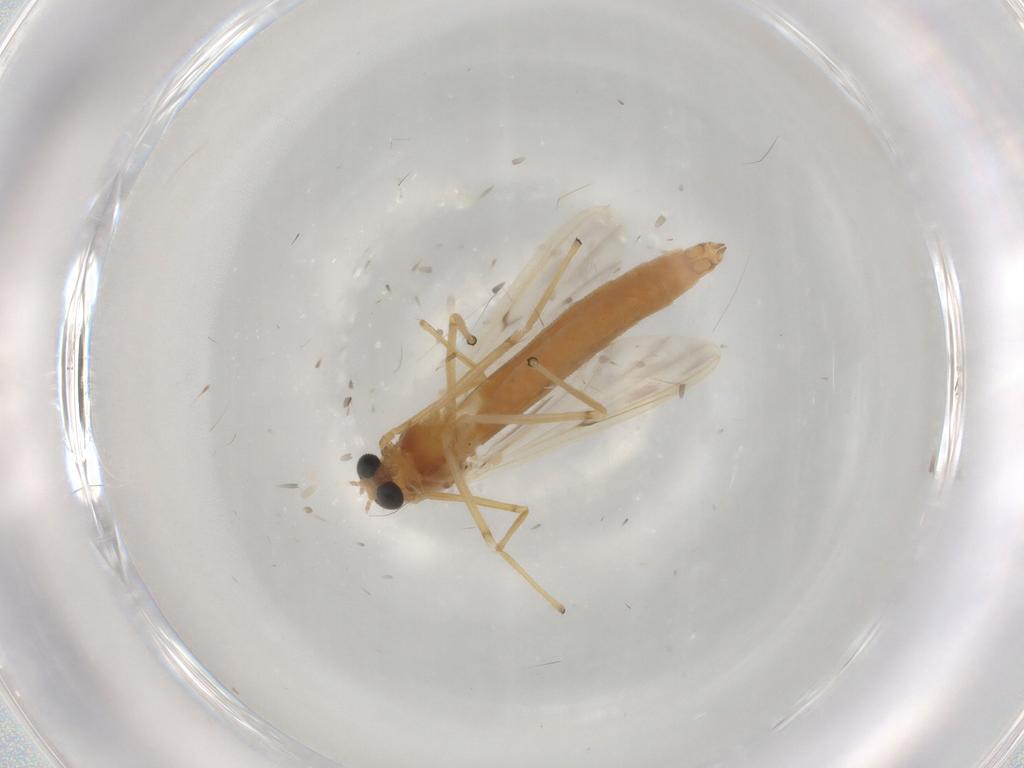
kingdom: Animalia
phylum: Arthropoda
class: Insecta
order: Diptera
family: Chironomidae
